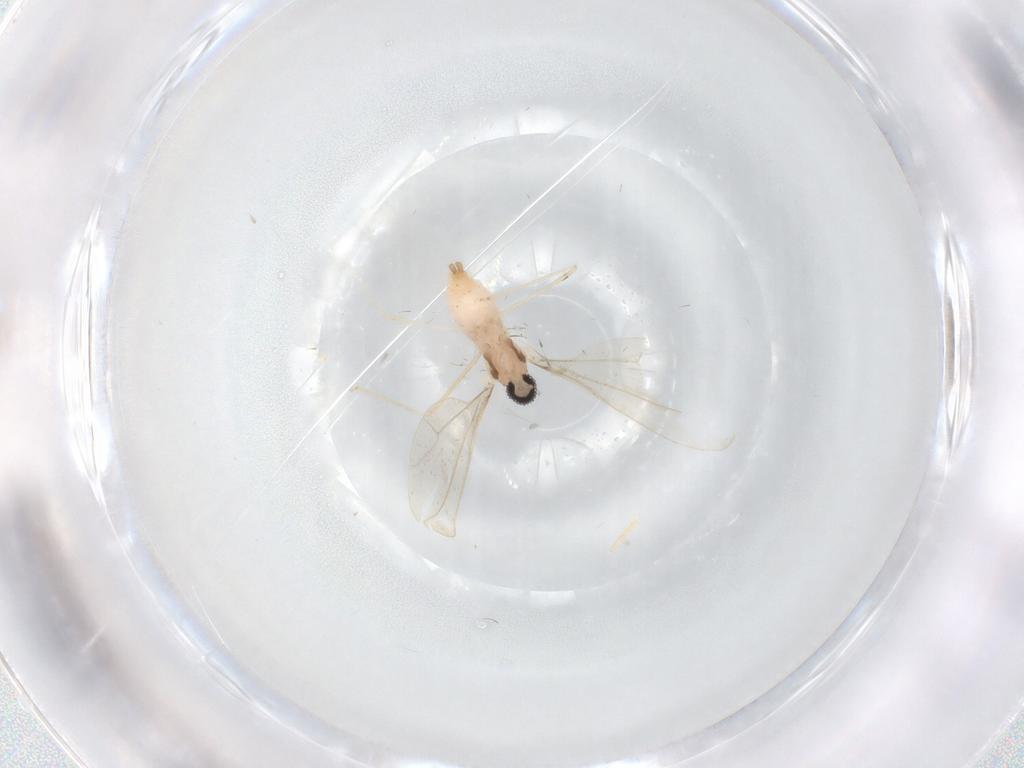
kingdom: Animalia
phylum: Arthropoda
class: Insecta
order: Diptera
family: Cecidomyiidae
